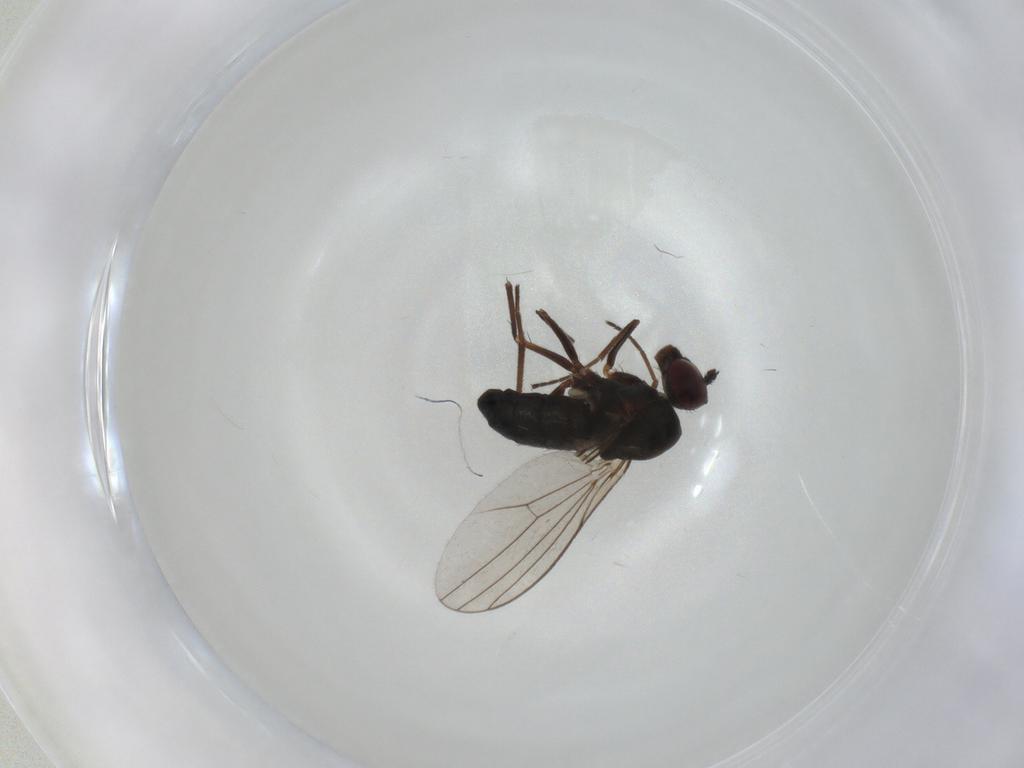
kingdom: Animalia
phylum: Arthropoda
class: Insecta
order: Diptera
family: Dolichopodidae
